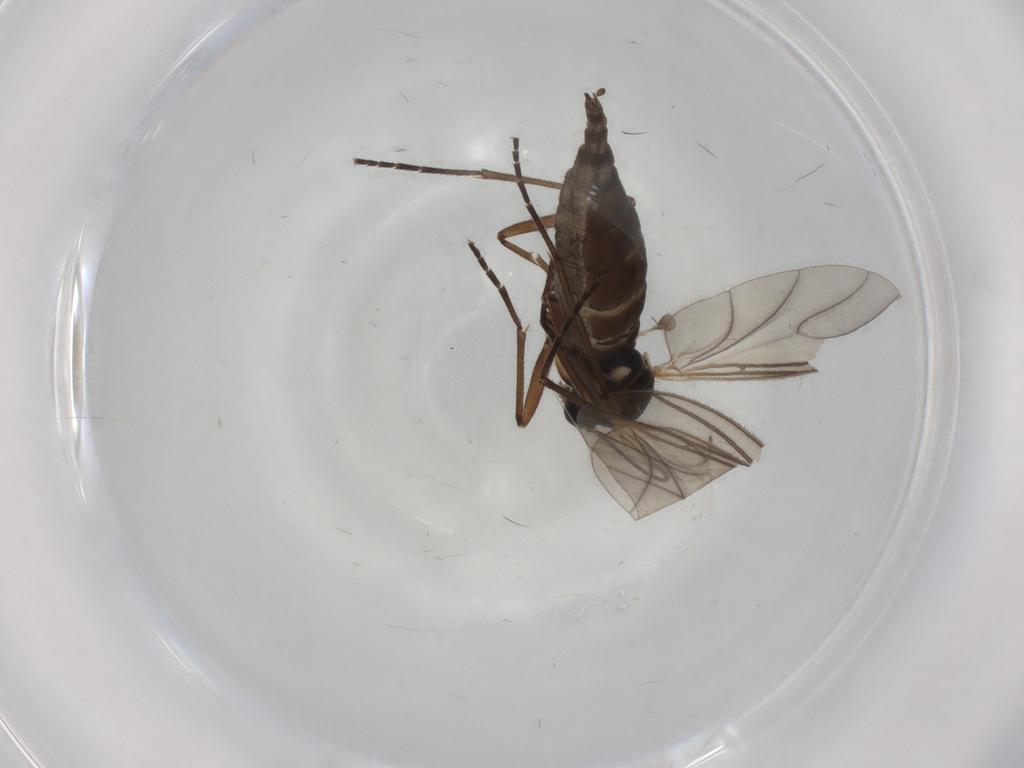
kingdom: Animalia
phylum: Arthropoda
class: Insecta
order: Diptera
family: Sciaridae
